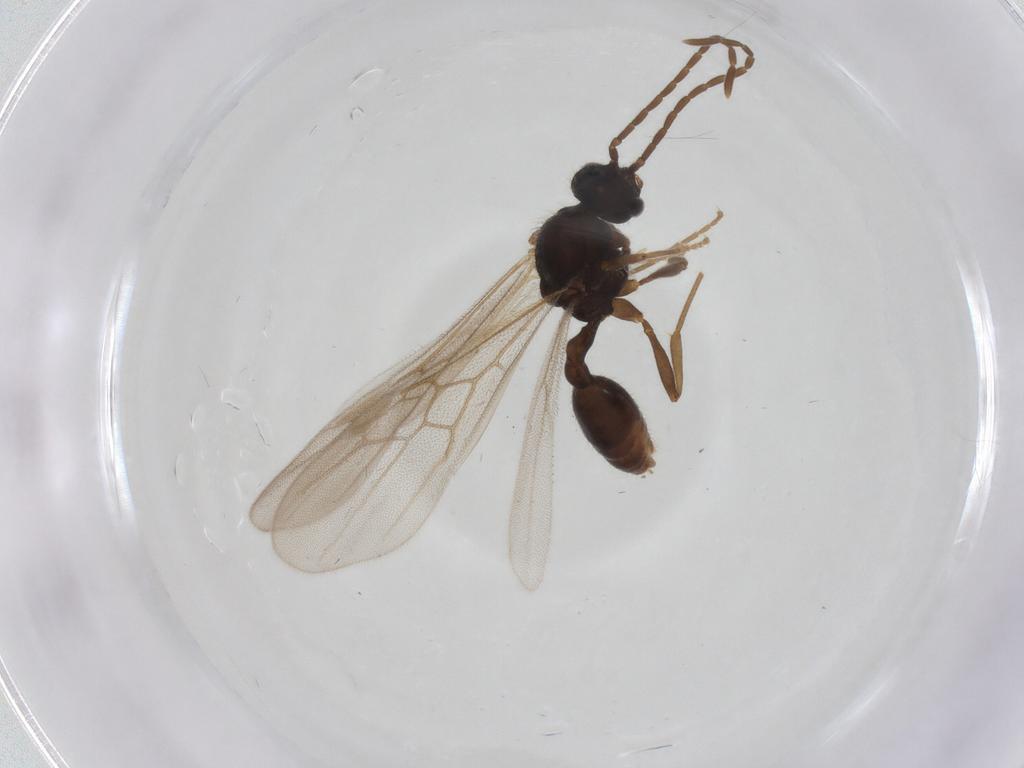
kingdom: Animalia
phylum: Arthropoda
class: Insecta
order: Hymenoptera
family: Formicidae
